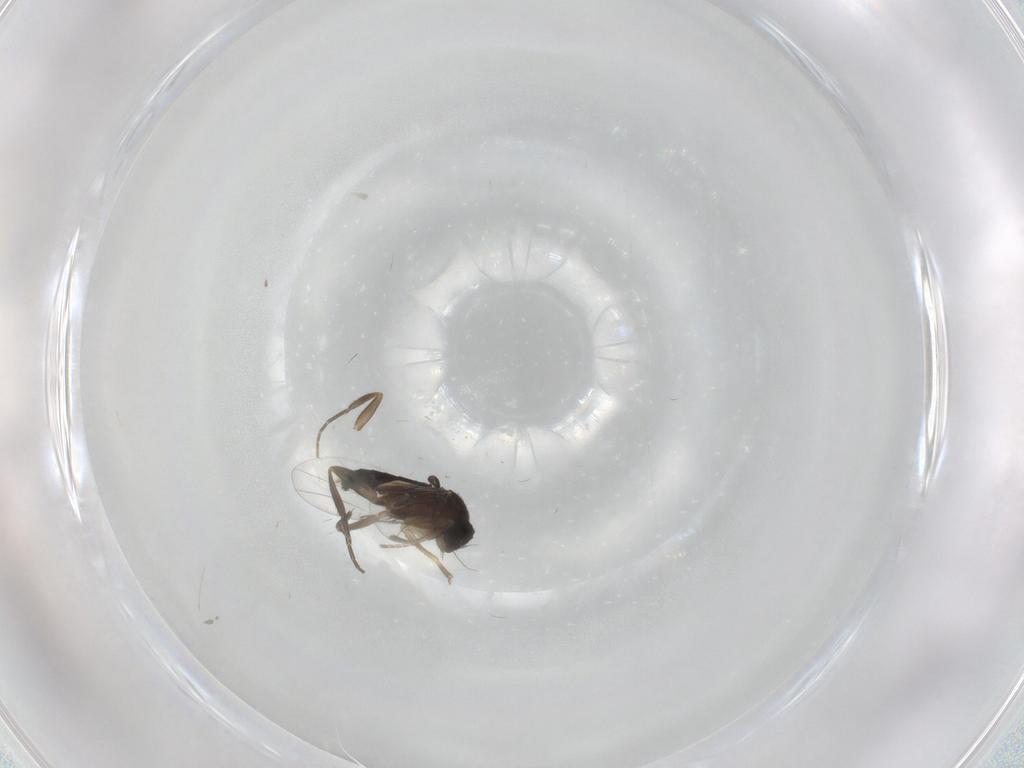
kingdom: Animalia
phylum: Arthropoda
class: Insecta
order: Diptera
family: Phoridae
